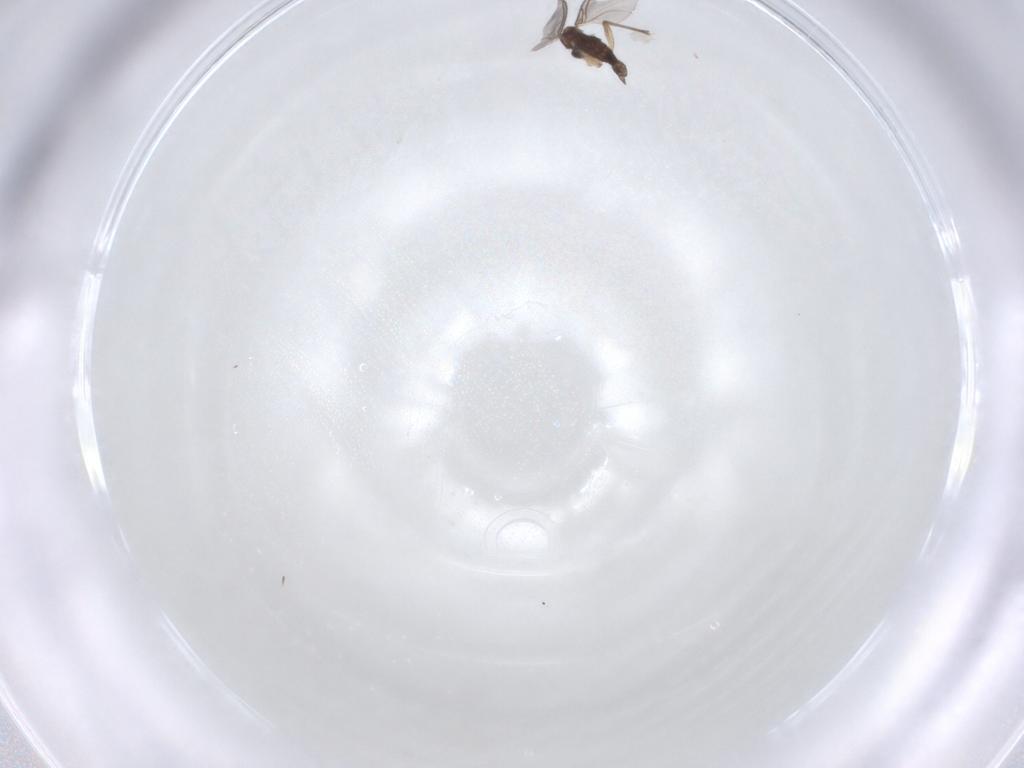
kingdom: Animalia
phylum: Arthropoda
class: Insecta
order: Diptera
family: Sciaridae
